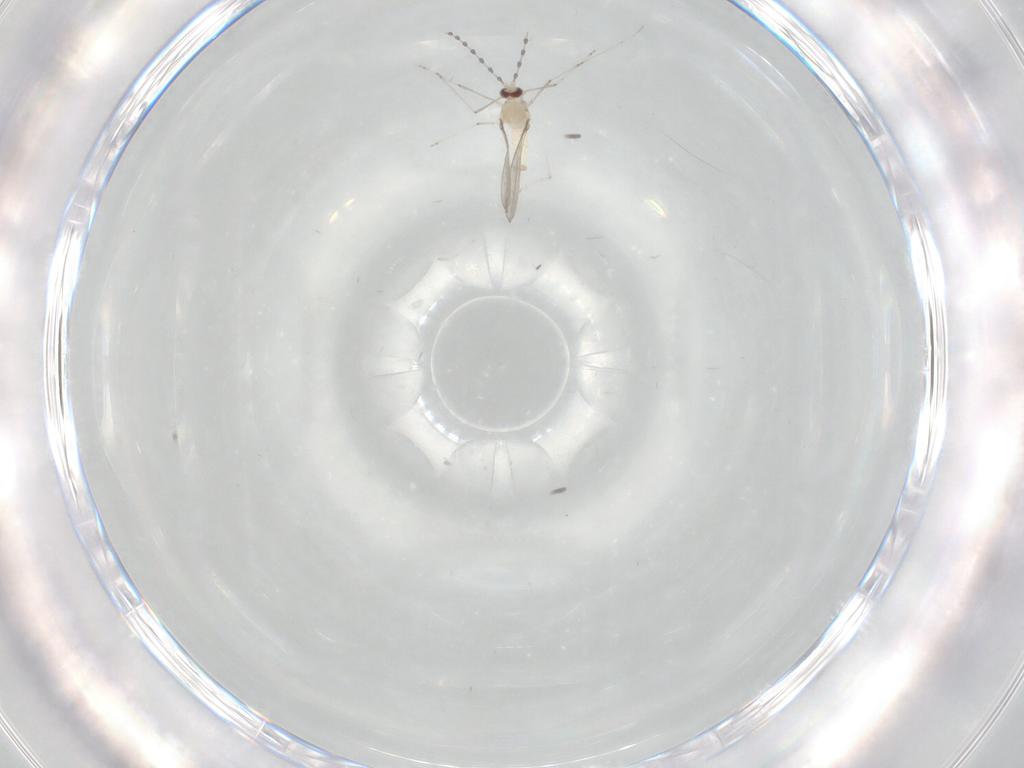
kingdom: Animalia
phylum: Arthropoda
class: Insecta
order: Diptera
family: Cecidomyiidae
